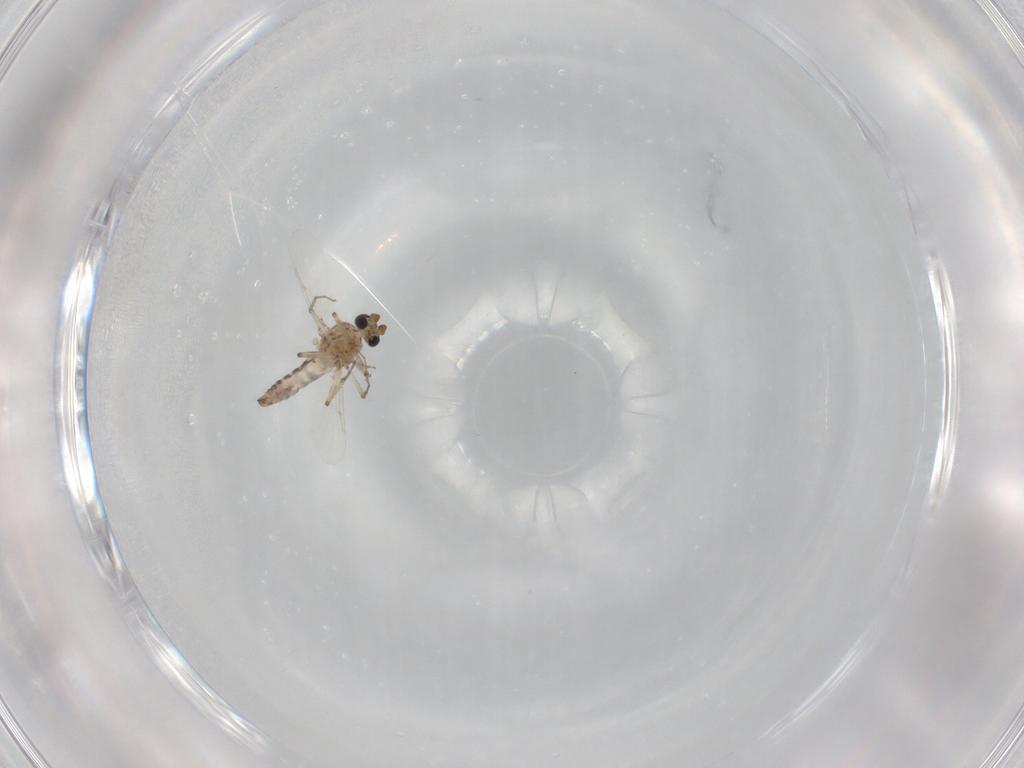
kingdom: Animalia
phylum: Arthropoda
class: Insecta
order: Diptera
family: Ceratopogonidae
